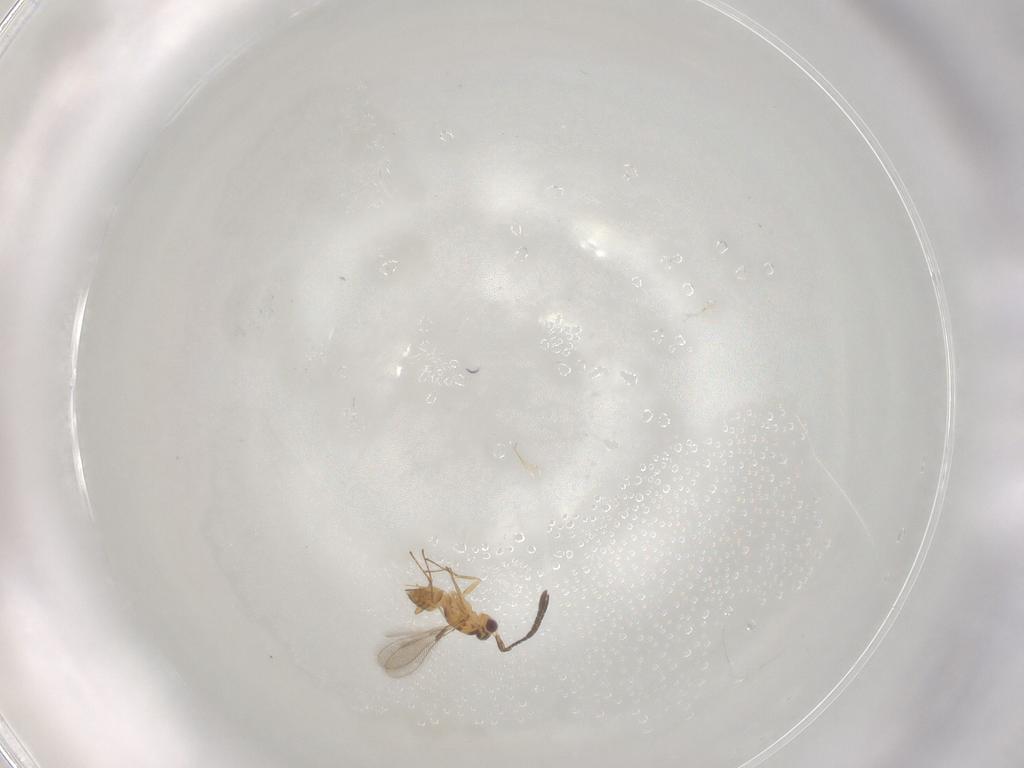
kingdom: Animalia
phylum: Arthropoda
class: Insecta
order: Hymenoptera
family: Mymaridae
